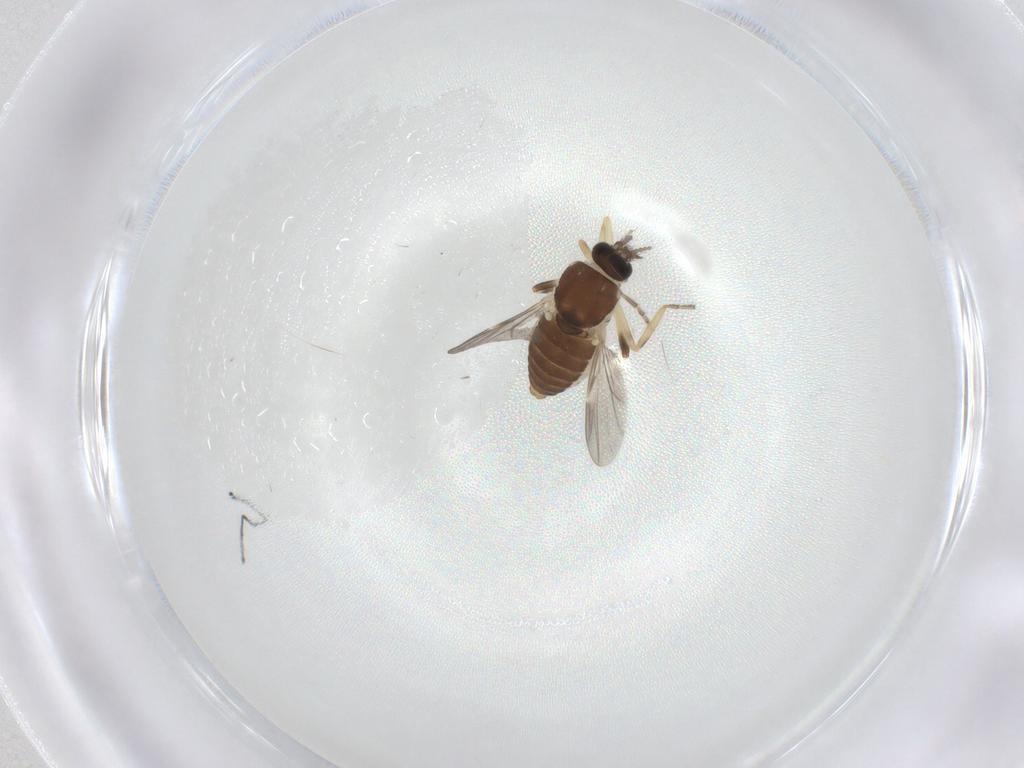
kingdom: Animalia
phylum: Arthropoda
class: Insecta
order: Diptera
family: Ceratopogonidae
